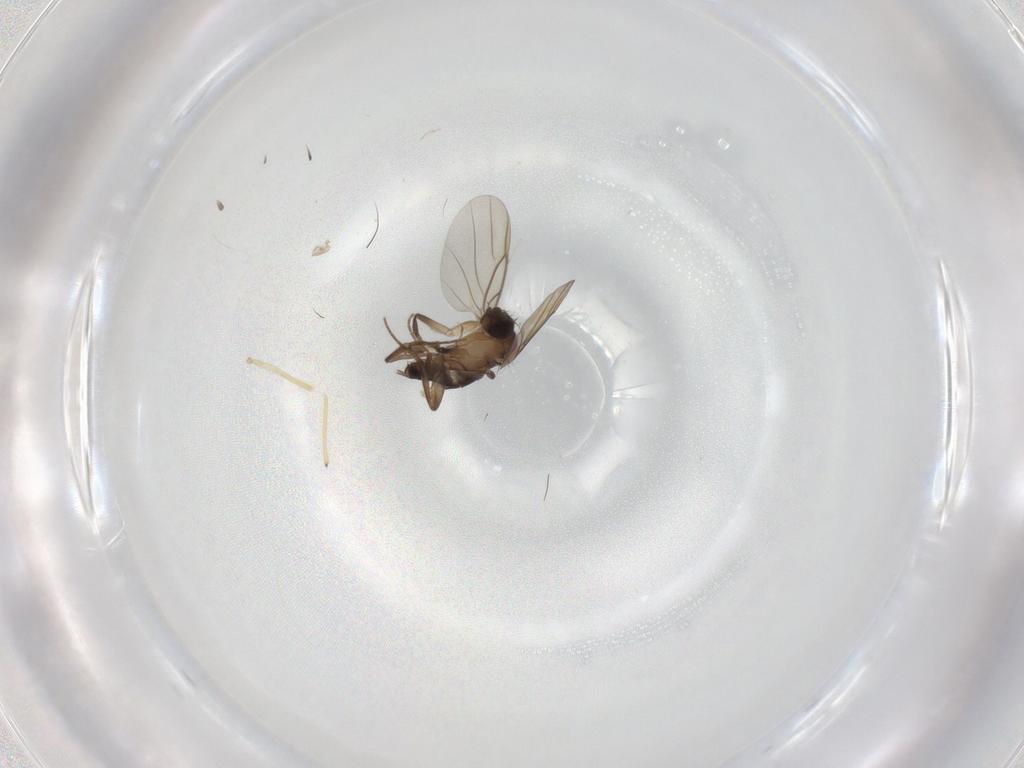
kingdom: Animalia
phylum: Arthropoda
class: Insecta
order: Diptera
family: Phoridae
